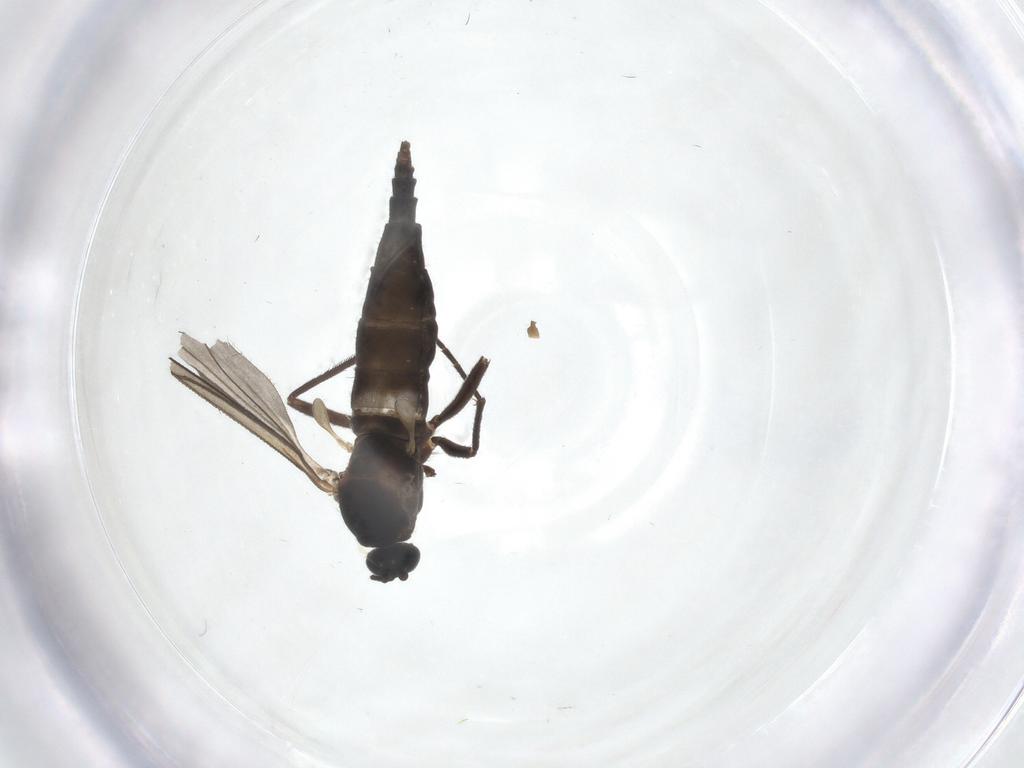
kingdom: Animalia
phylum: Arthropoda
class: Insecta
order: Diptera
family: Sciaridae
